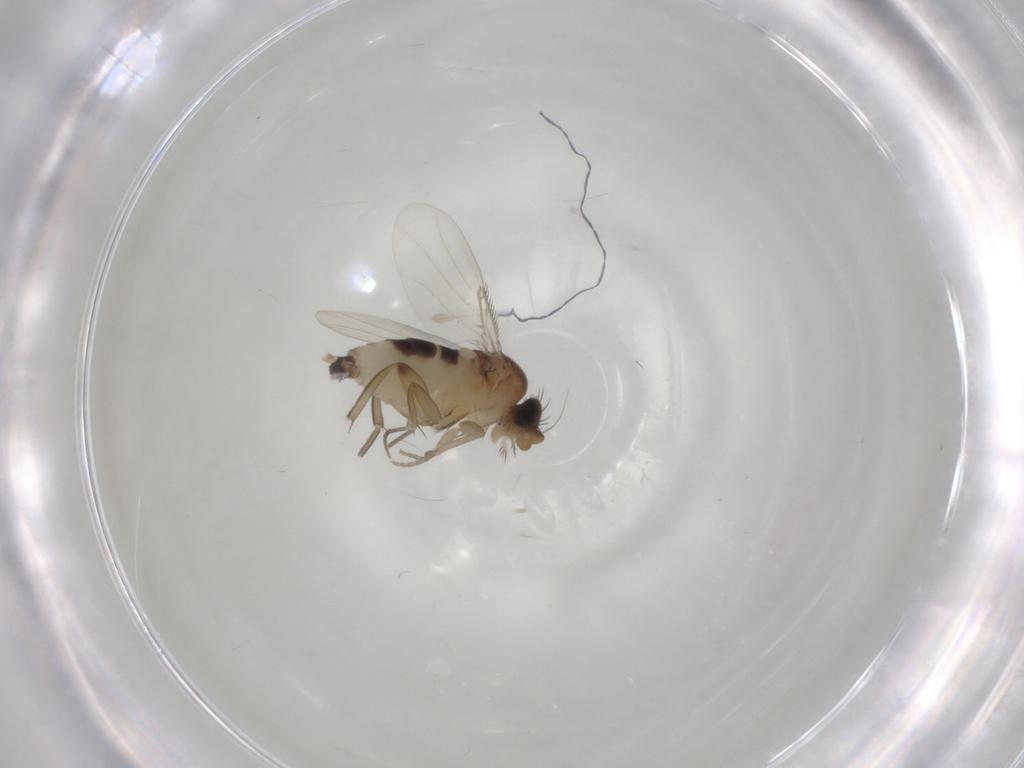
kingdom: Animalia
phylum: Arthropoda
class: Insecta
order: Diptera
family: Phoridae
